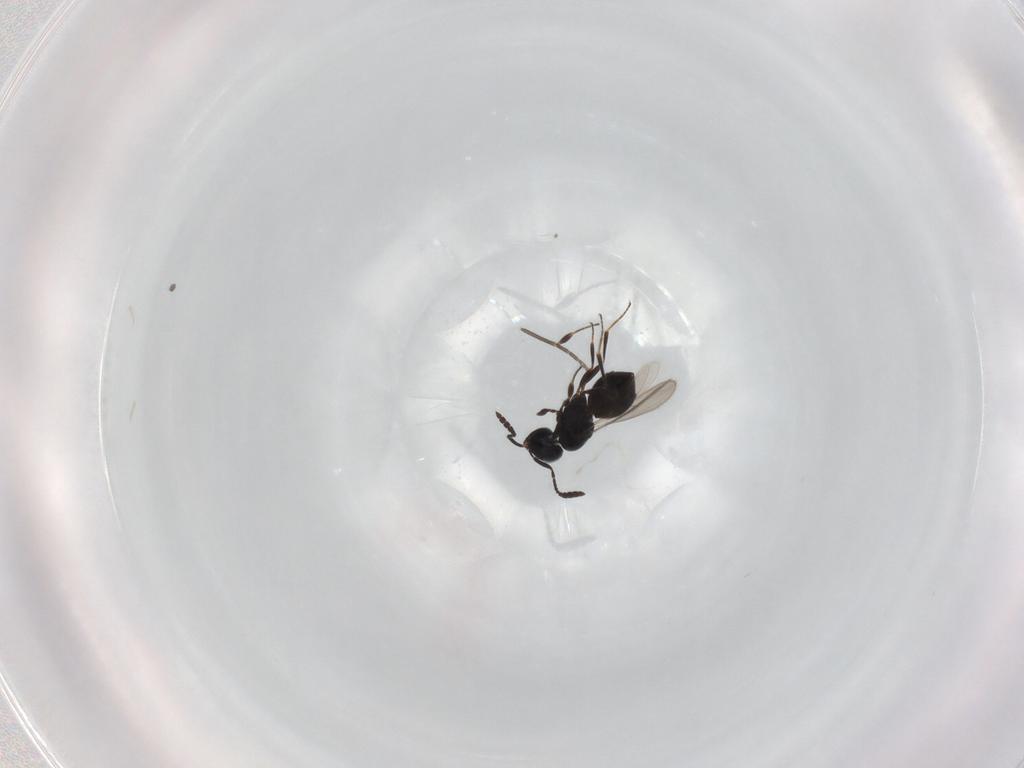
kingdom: Animalia
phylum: Arthropoda
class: Insecta
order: Hymenoptera
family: Scelionidae
